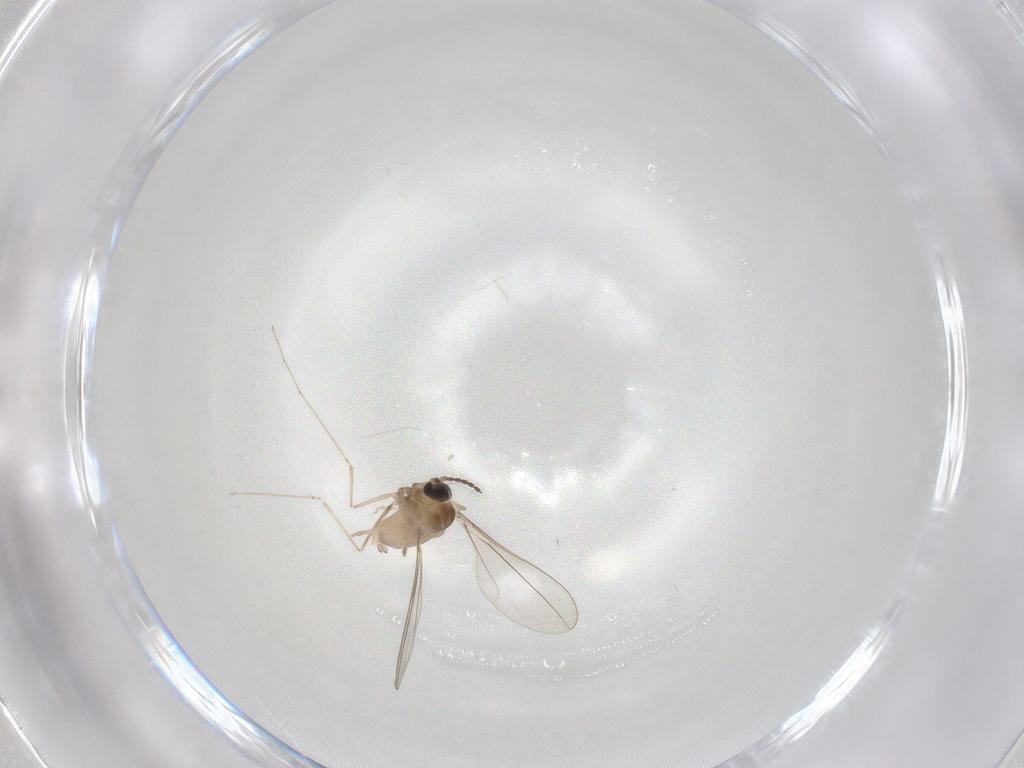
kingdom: Animalia
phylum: Arthropoda
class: Insecta
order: Diptera
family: Cecidomyiidae
